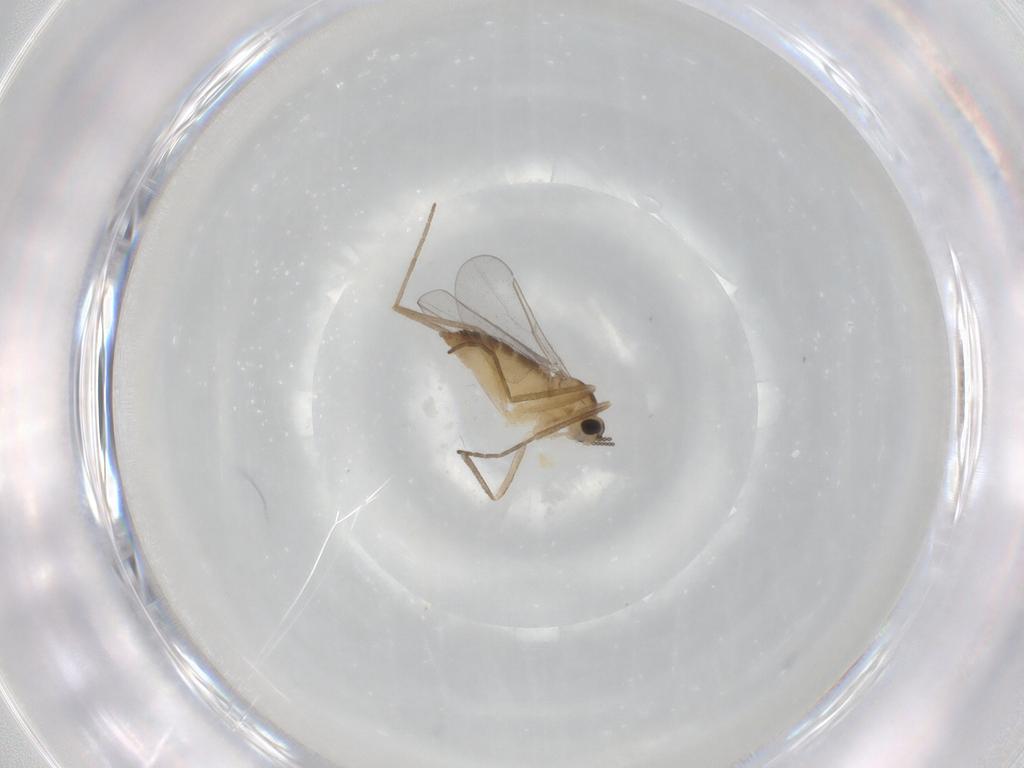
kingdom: Animalia
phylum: Arthropoda
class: Insecta
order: Diptera
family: Cecidomyiidae
